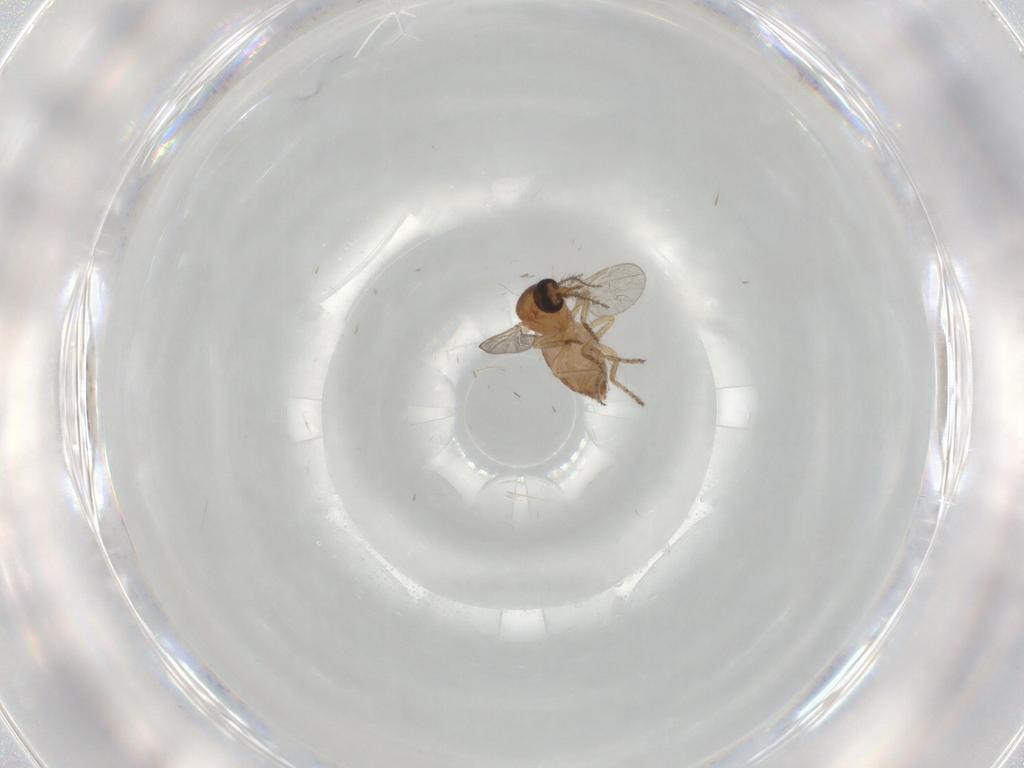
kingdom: Animalia
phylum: Arthropoda
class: Insecta
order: Diptera
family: Ceratopogonidae
